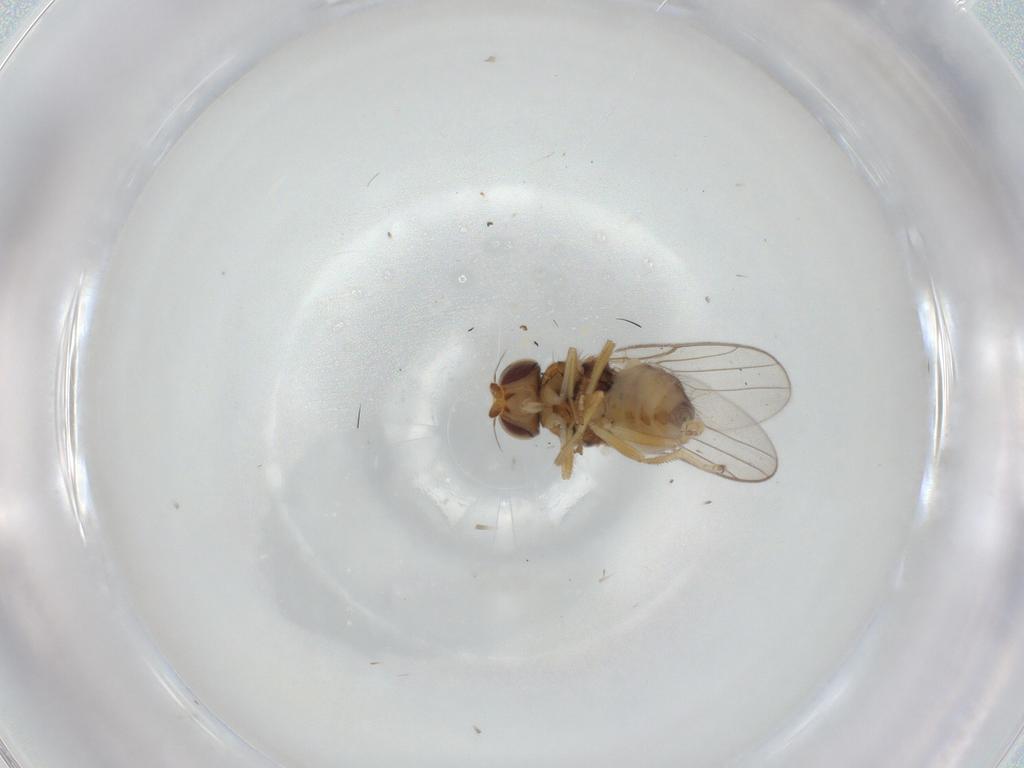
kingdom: Animalia
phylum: Arthropoda
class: Insecta
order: Diptera
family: Chloropidae
